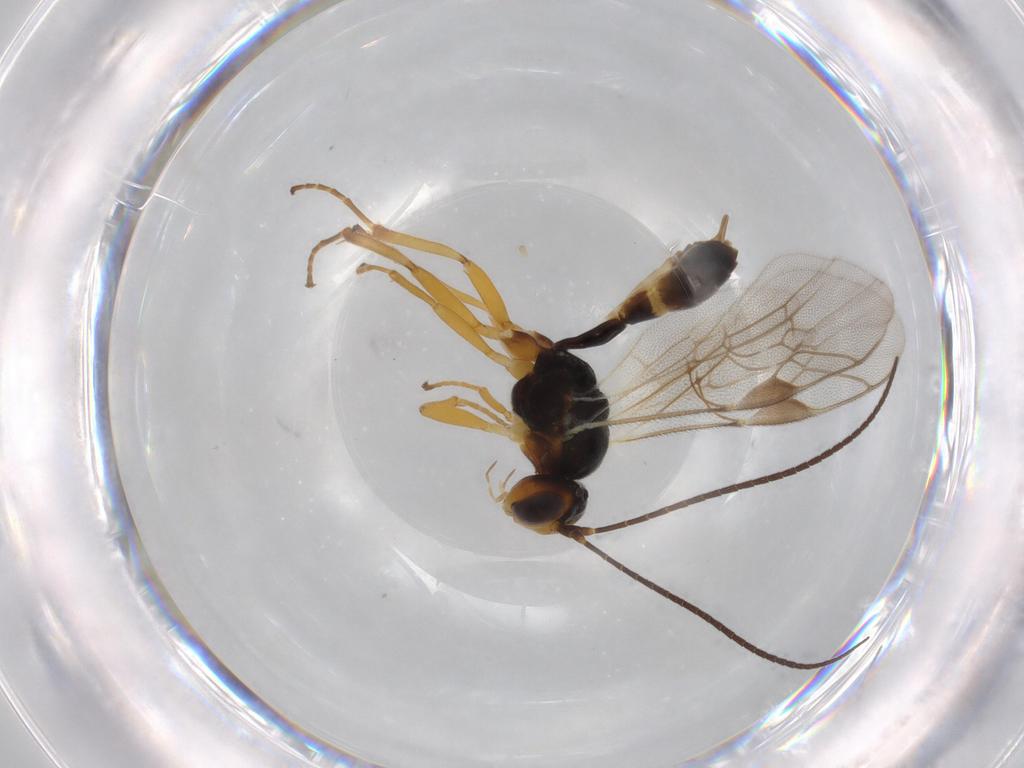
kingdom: Animalia
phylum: Arthropoda
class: Insecta
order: Hymenoptera
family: Ichneumonidae
